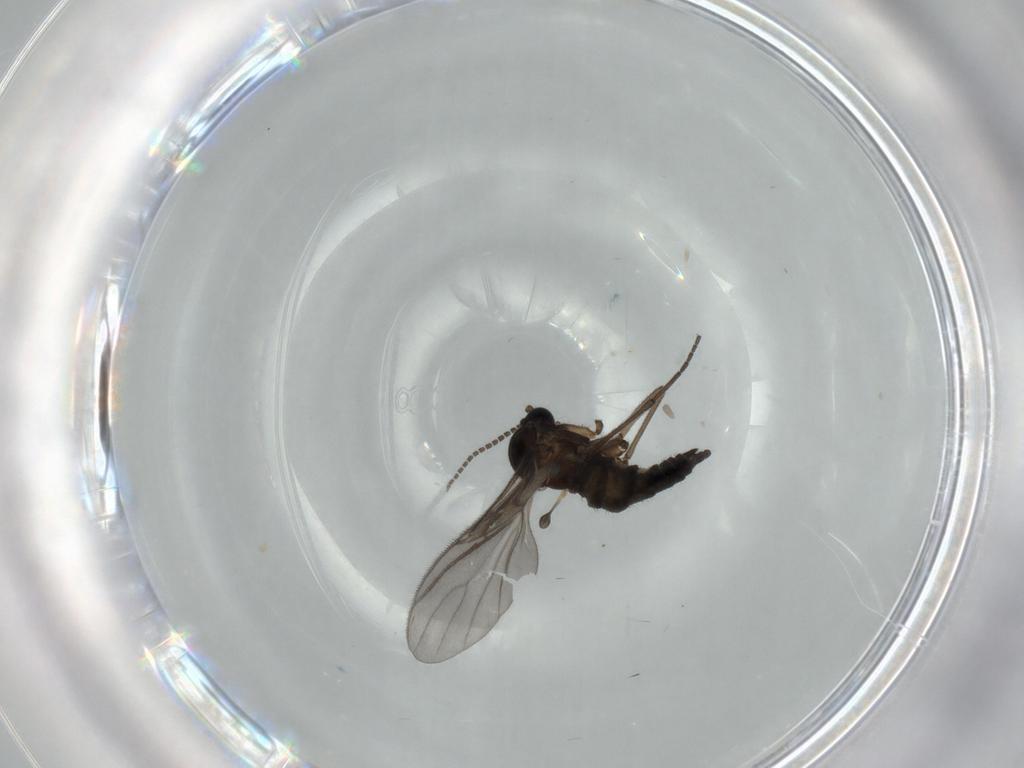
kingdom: Animalia
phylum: Arthropoda
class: Insecta
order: Diptera
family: Sciaridae
